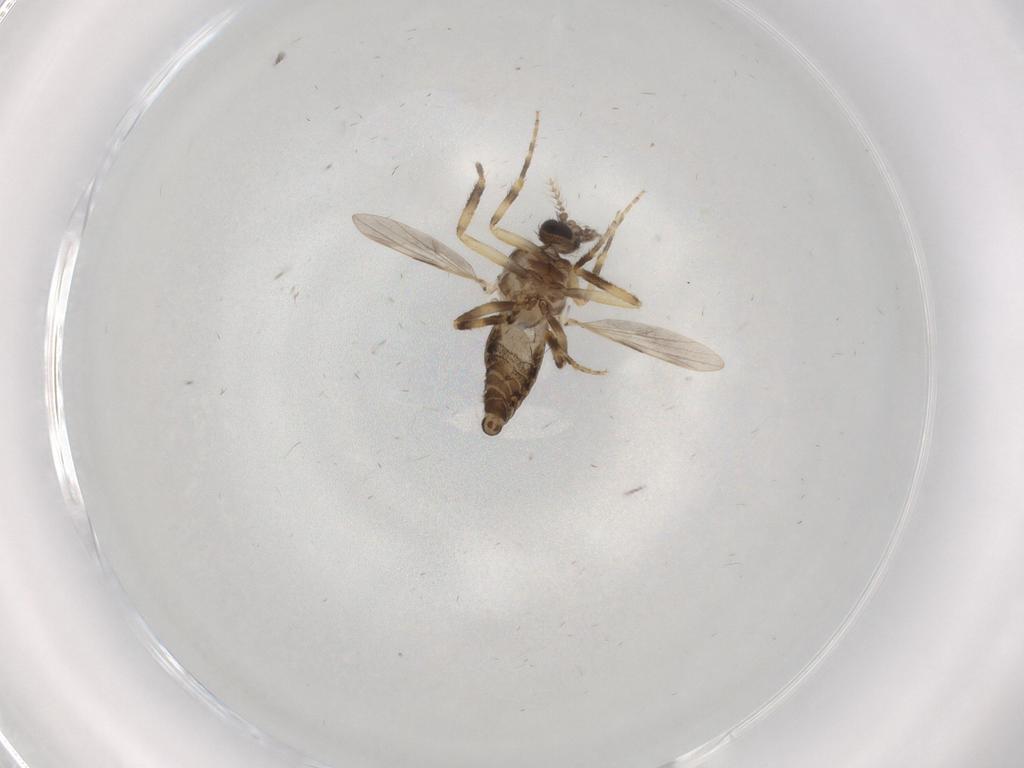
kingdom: Animalia
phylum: Arthropoda
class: Insecta
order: Diptera
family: Ceratopogonidae
